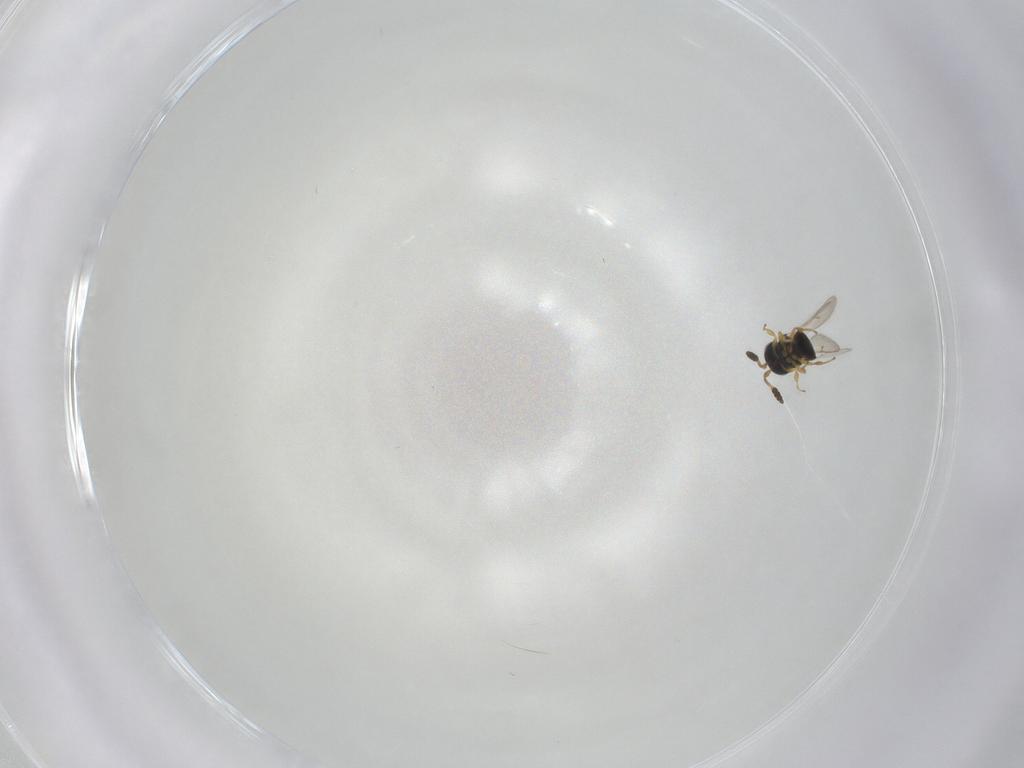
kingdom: Animalia
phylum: Arthropoda
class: Insecta
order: Hymenoptera
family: Scelionidae
